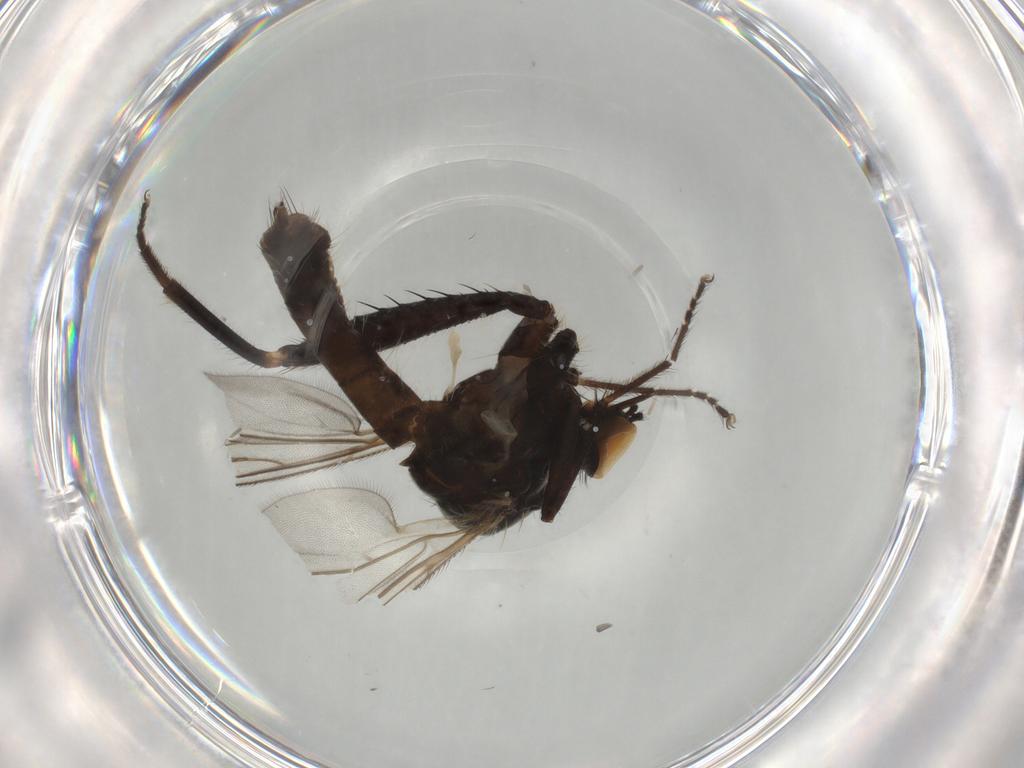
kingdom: Animalia
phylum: Arthropoda
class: Insecta
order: Diptera
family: Hybotidae
